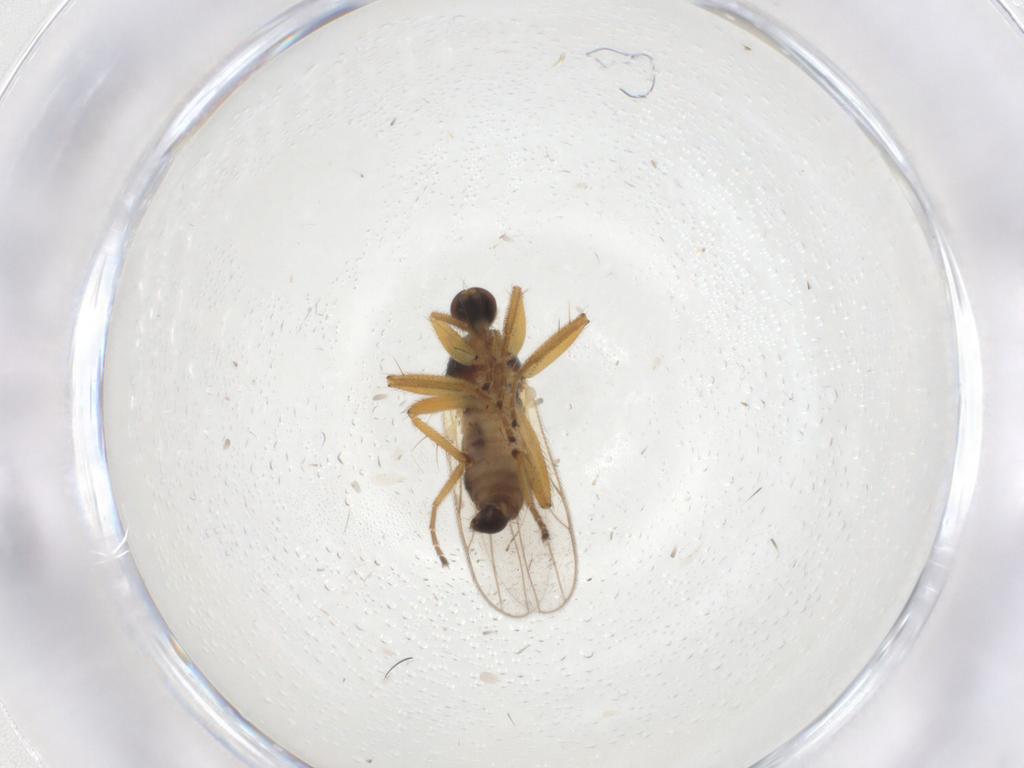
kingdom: Animalia
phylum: Arthropoda
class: Insecta
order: Diptera
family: Hybotidae
